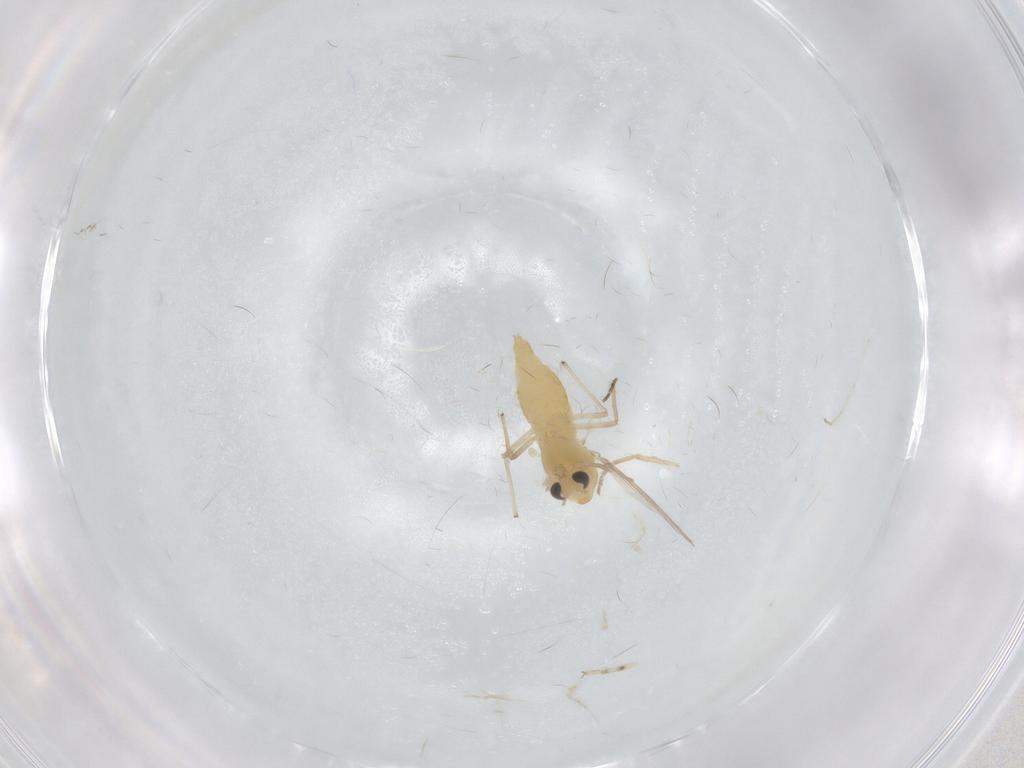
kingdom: Animalia
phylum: Arthropoda
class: Insecta
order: Diptera
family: Chironomidae
